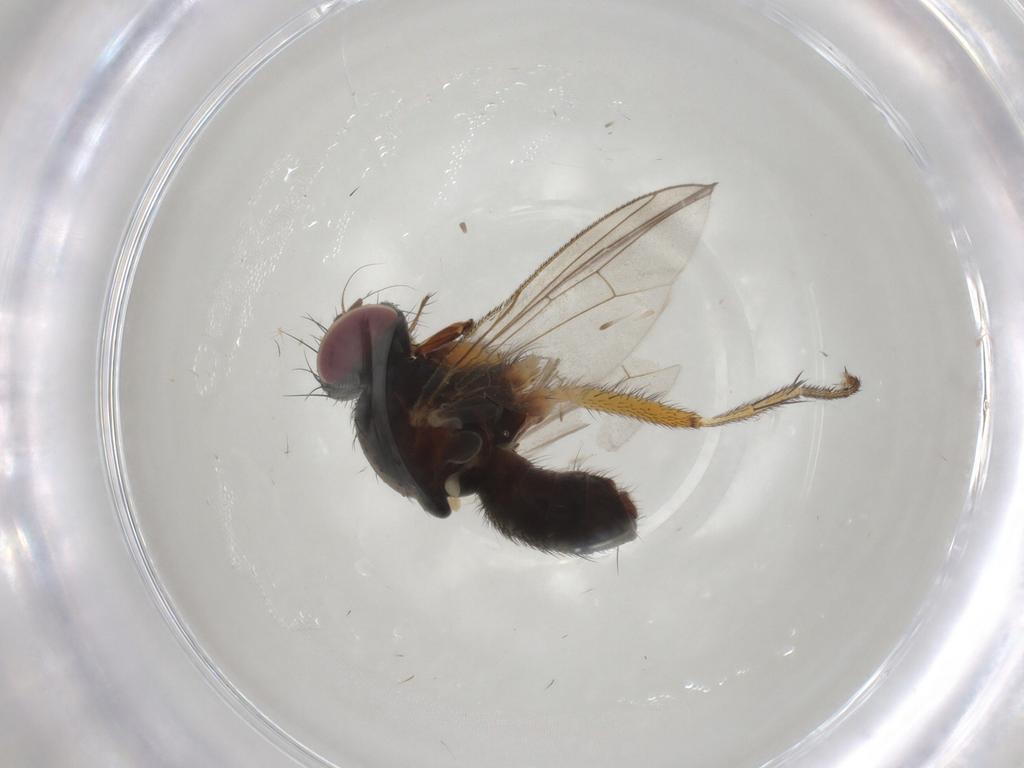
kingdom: Animalia
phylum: Arthropoda
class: Insecta
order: Diptera
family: Muscidae
